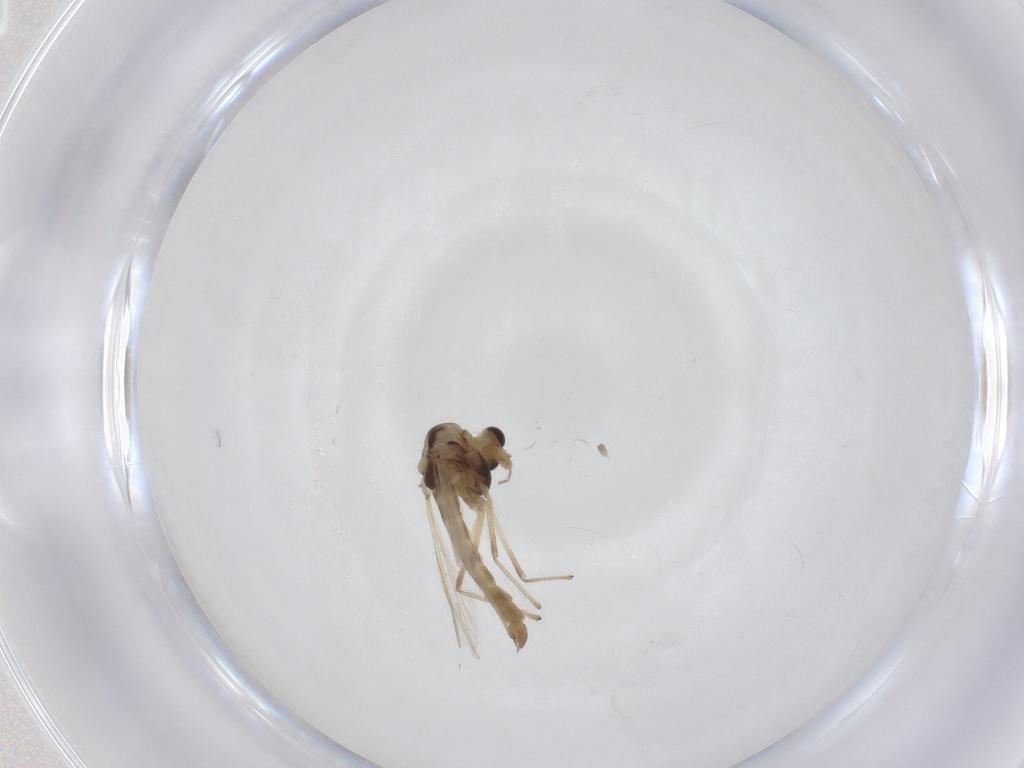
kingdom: Animalia
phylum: Arthropoda
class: Insecta
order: Diptera
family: Chironomidae
